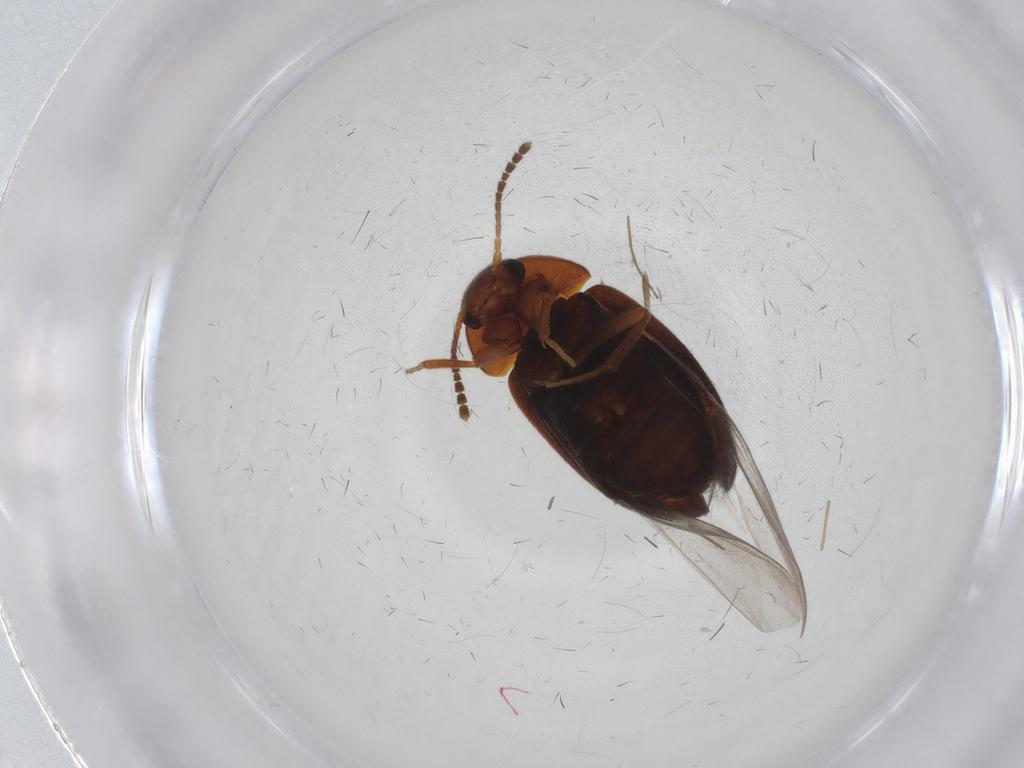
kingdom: Animalia
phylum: Arthropoda
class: Insecta
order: Coleoptera
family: Leiodidae
